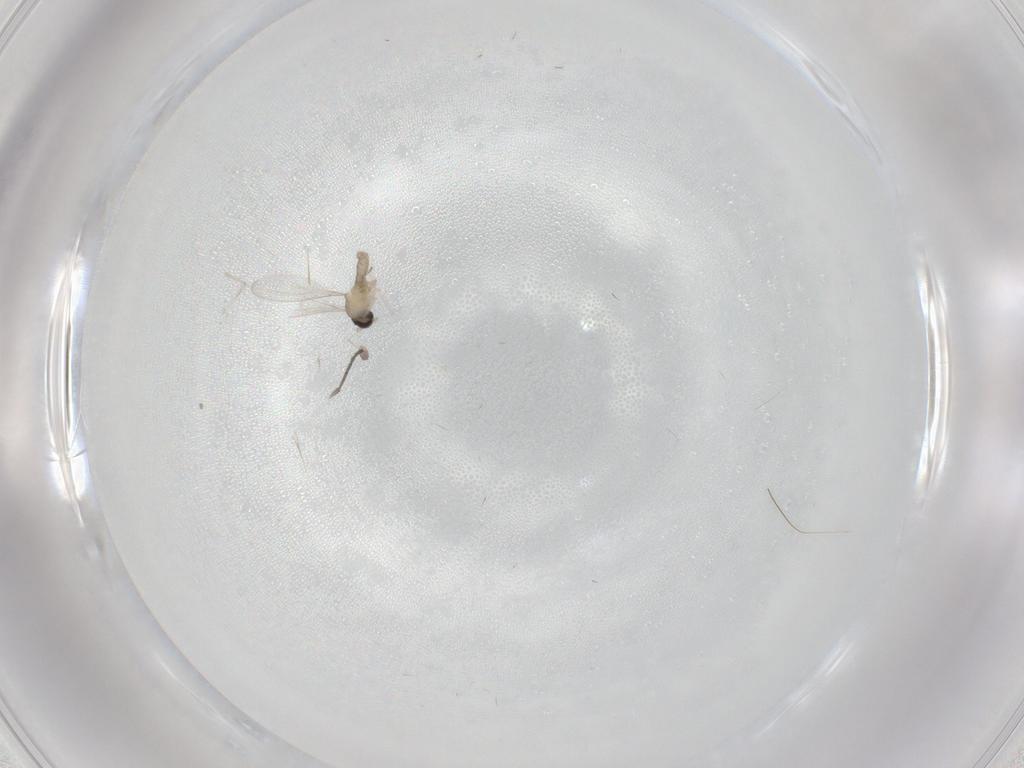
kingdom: Animalia
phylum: Arthropoda
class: Insecta
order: Diptera
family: Cecidomyiidae
